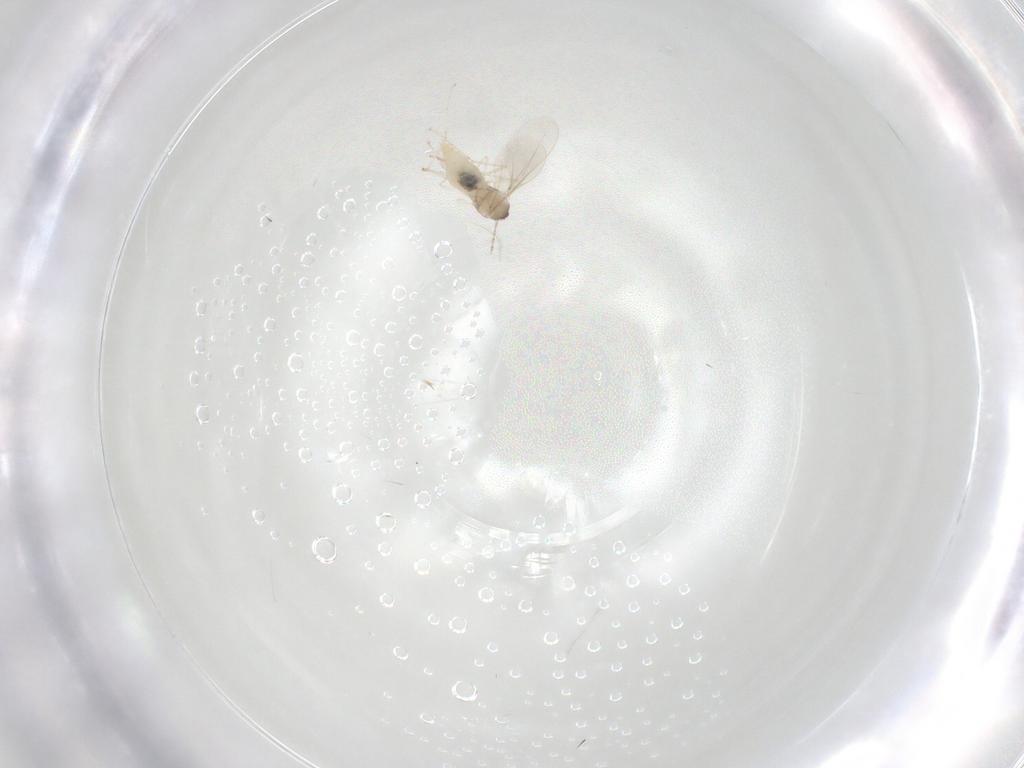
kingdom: Animalia
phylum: Arthropoda
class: Insecta
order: Diptera
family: Cecidomyiidae
